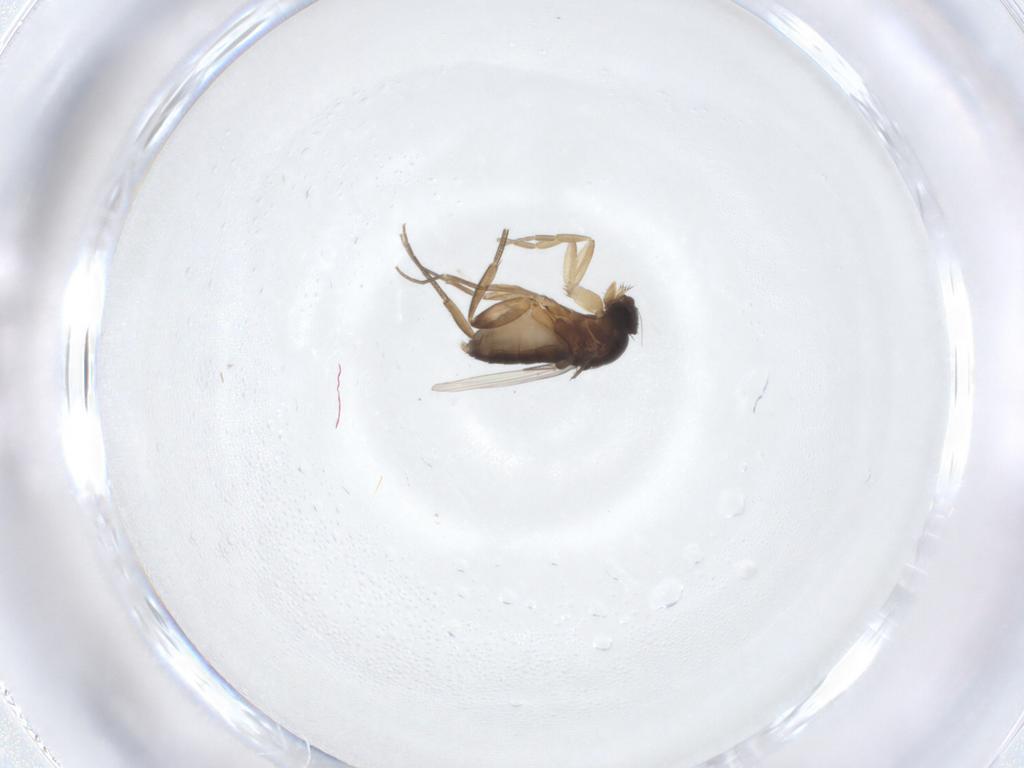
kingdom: Animalia
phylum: Arthropoda
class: Insecta
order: Diptera
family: Phoridae
